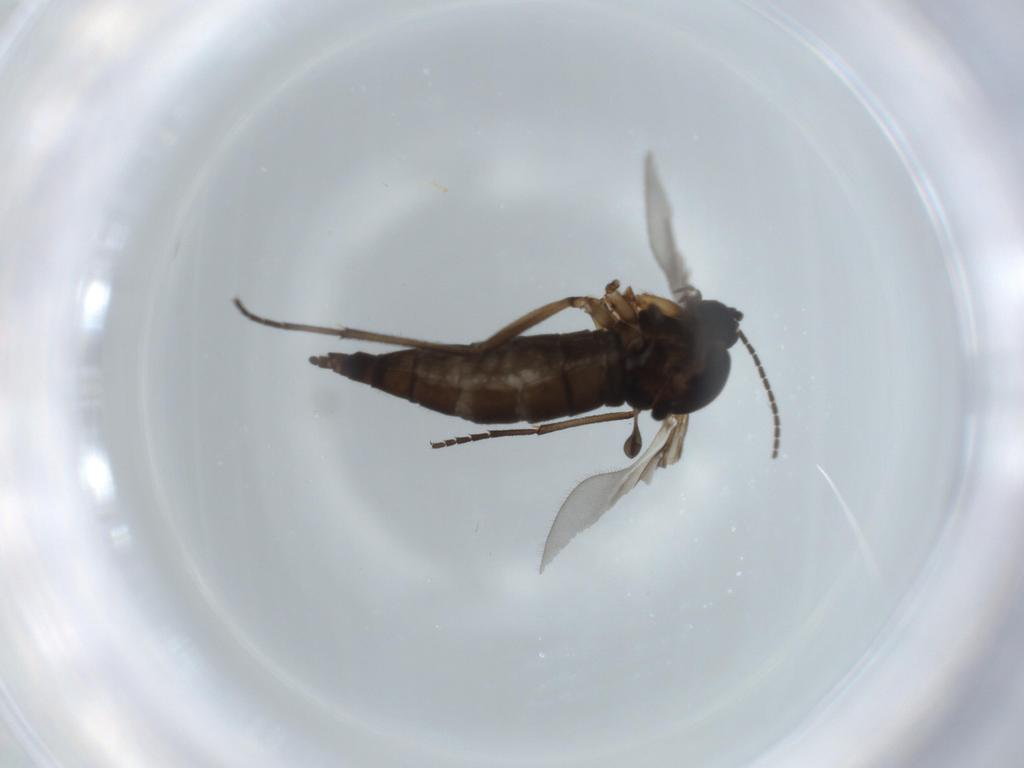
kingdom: Animalia
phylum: Arthropoda
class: Insecta
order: Diptera
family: Sciaridae
